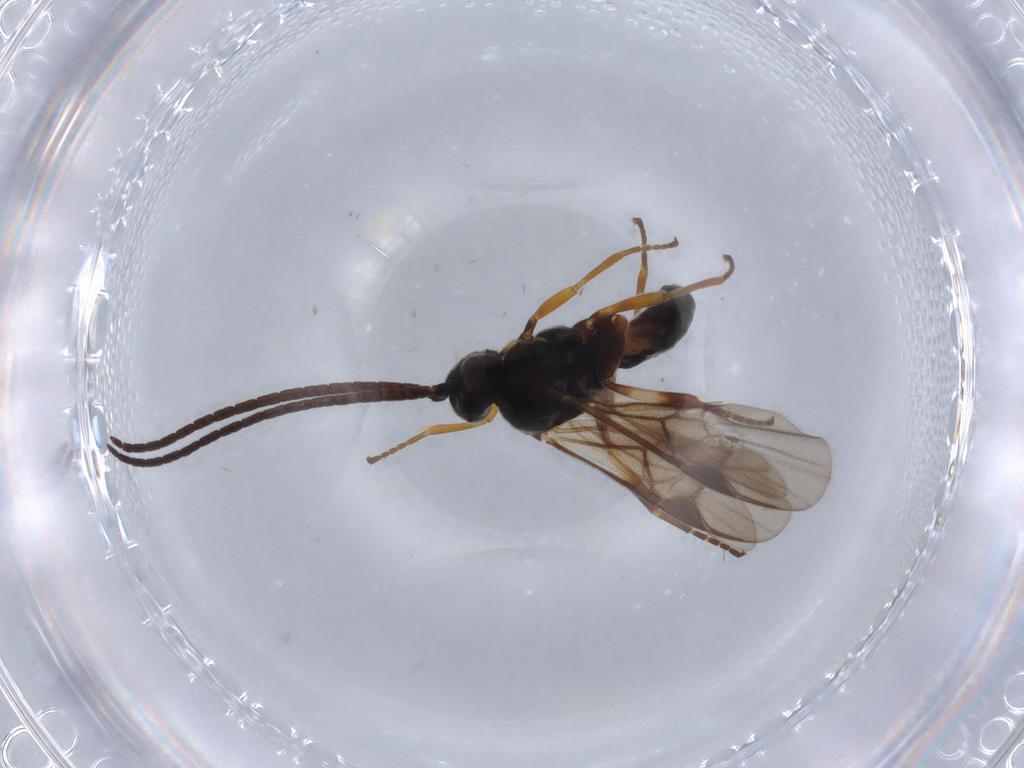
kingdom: Animalia
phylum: Arthropoda
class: Insecta
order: Hymenoptera
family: Braconidae
